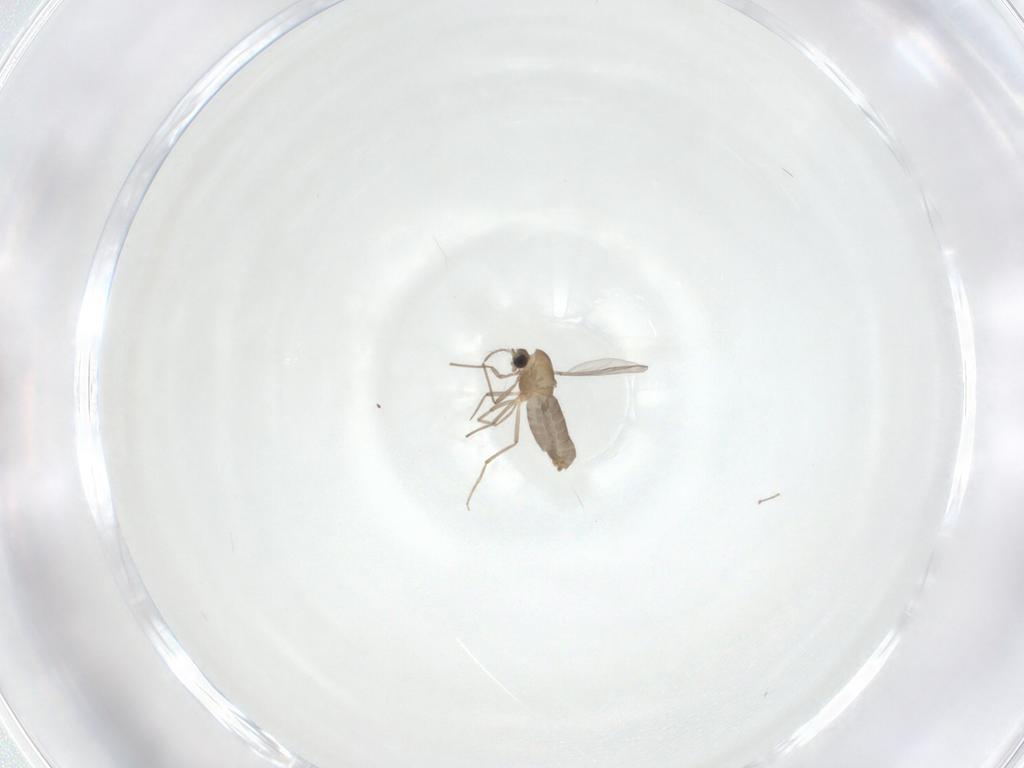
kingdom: Animalia
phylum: Arthropoda
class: Insecta
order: Diptera
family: Chironomidae
